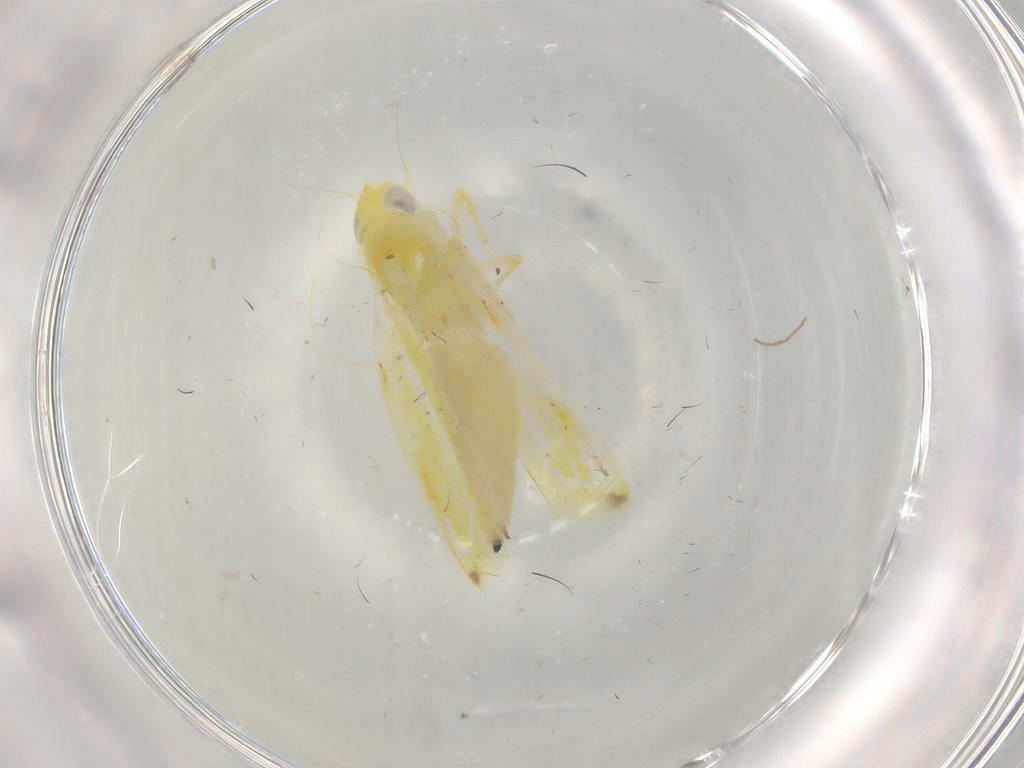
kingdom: Animalia
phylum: Arthropoda
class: Insecta
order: Hemiptera
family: Cicadellidae
